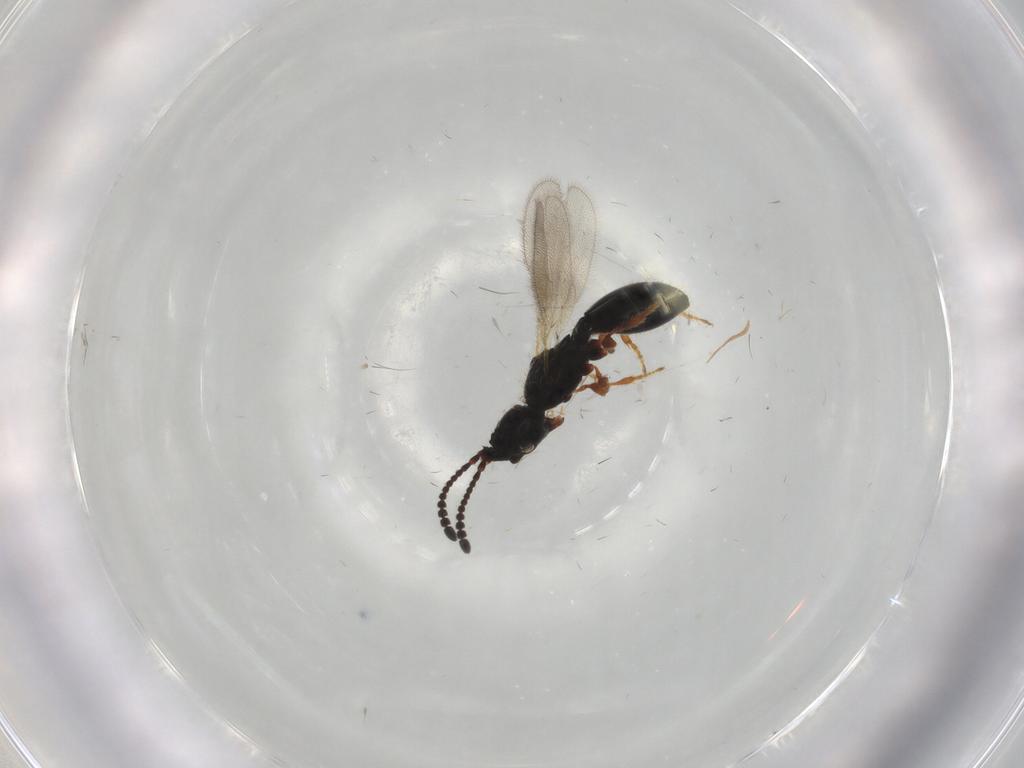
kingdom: Animalia
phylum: Arthropoda
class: Insecta
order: Hymenoptera
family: Diapriidae
